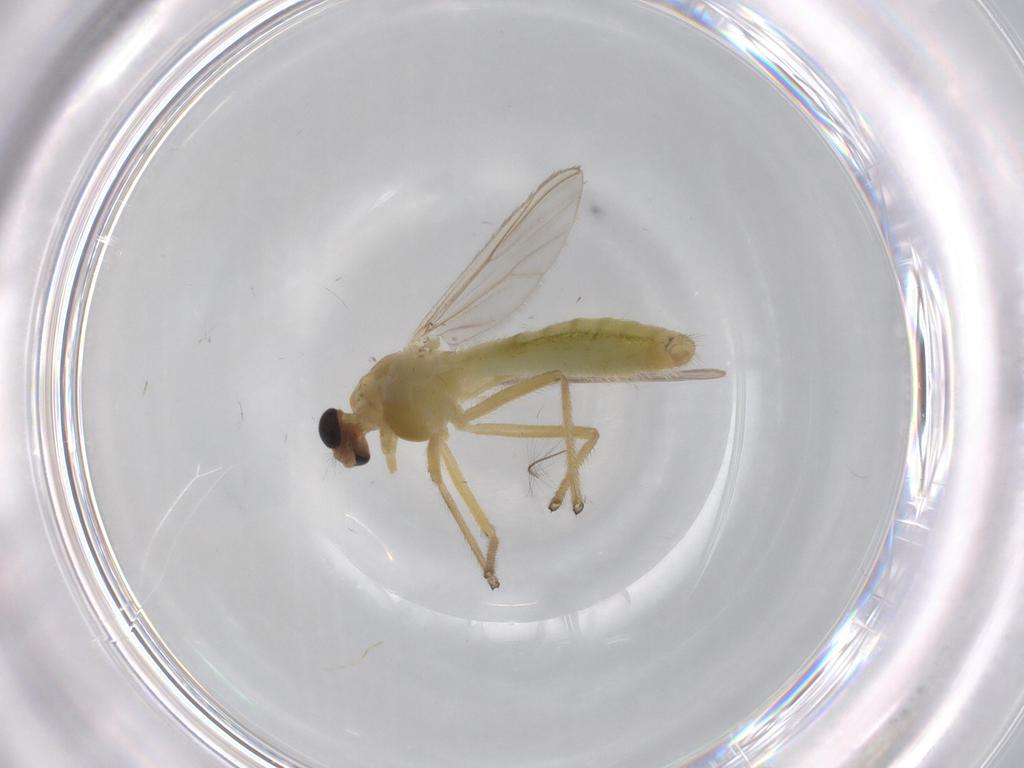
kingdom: Animalia
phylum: Arthropoda
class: Insecta
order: Diptera
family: Chironomidae
